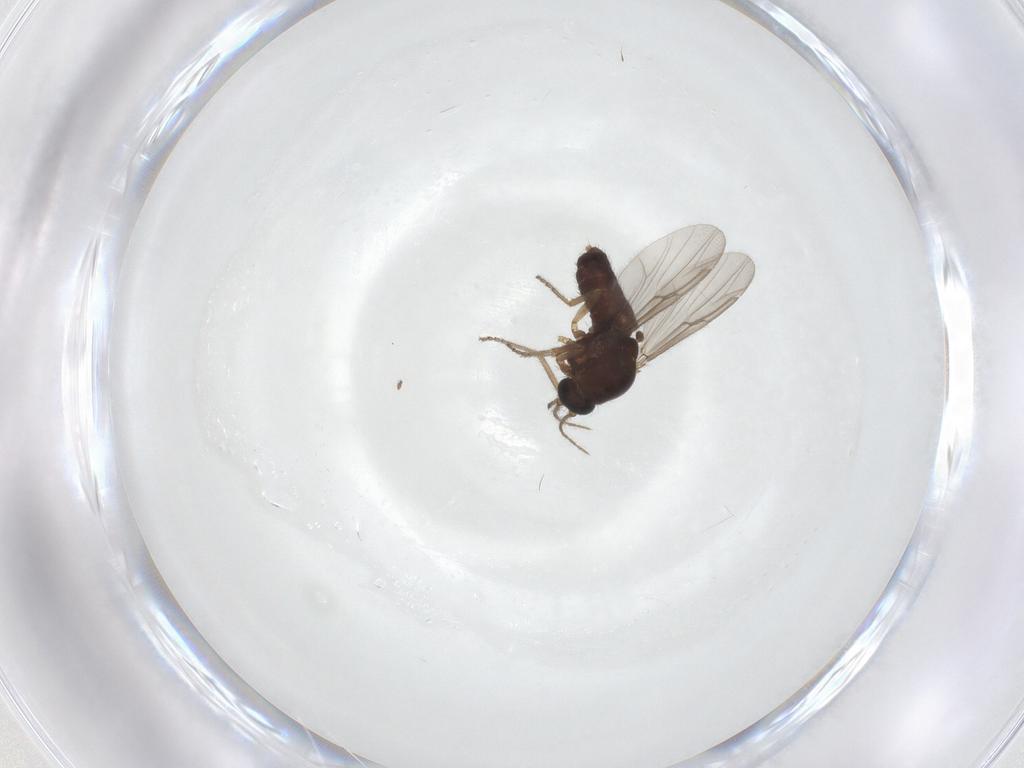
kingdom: Animalia
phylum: Arthropoda
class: Insecta
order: Diptera
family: Ceratopogonidae
